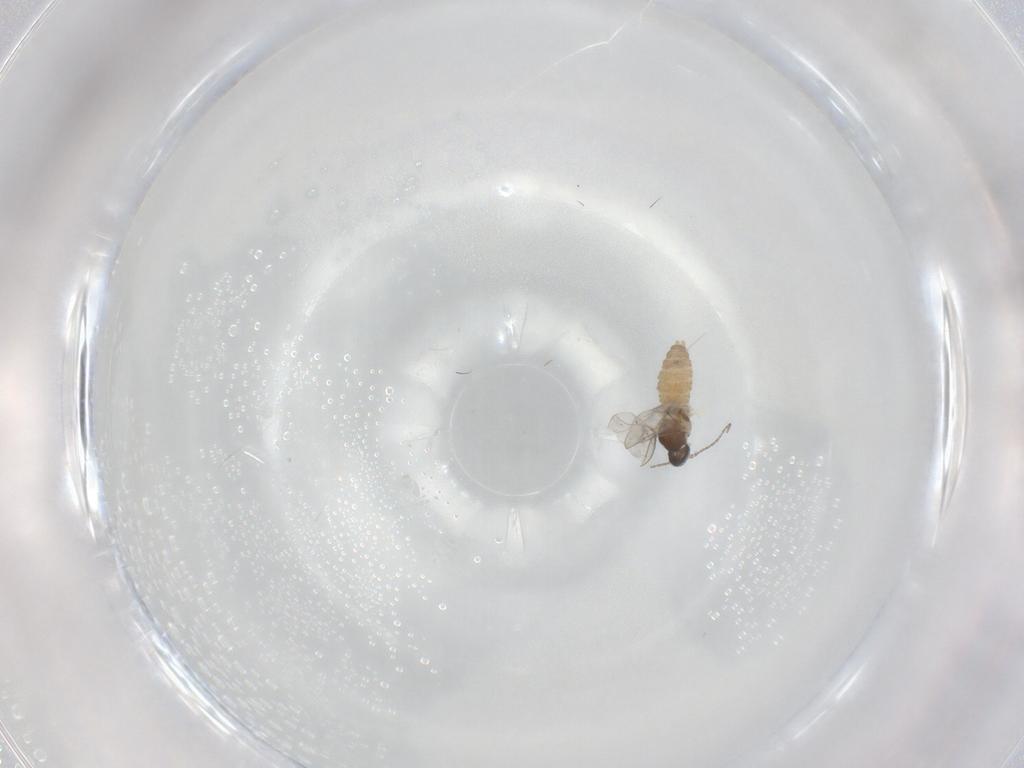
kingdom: Animalia
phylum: Arthropoda
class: Insecta
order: Diptera
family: Cecidomyiidae
